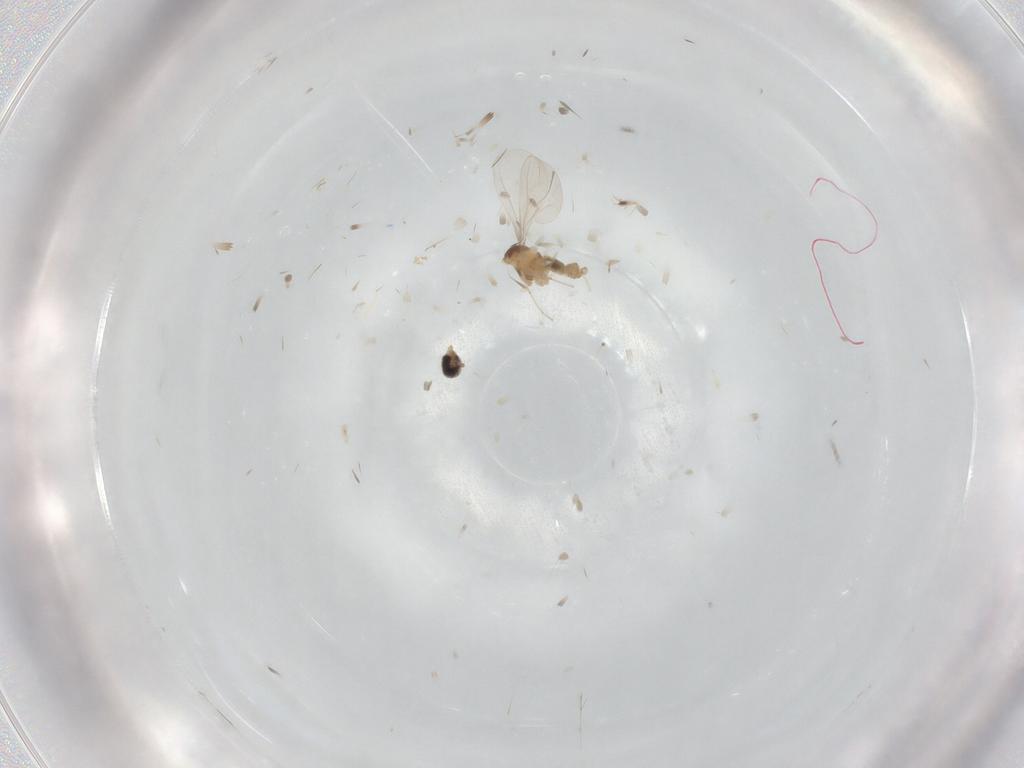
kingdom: Animalia
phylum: Arthropoda
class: Insecta
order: Diptera
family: Cecidomyiidae
